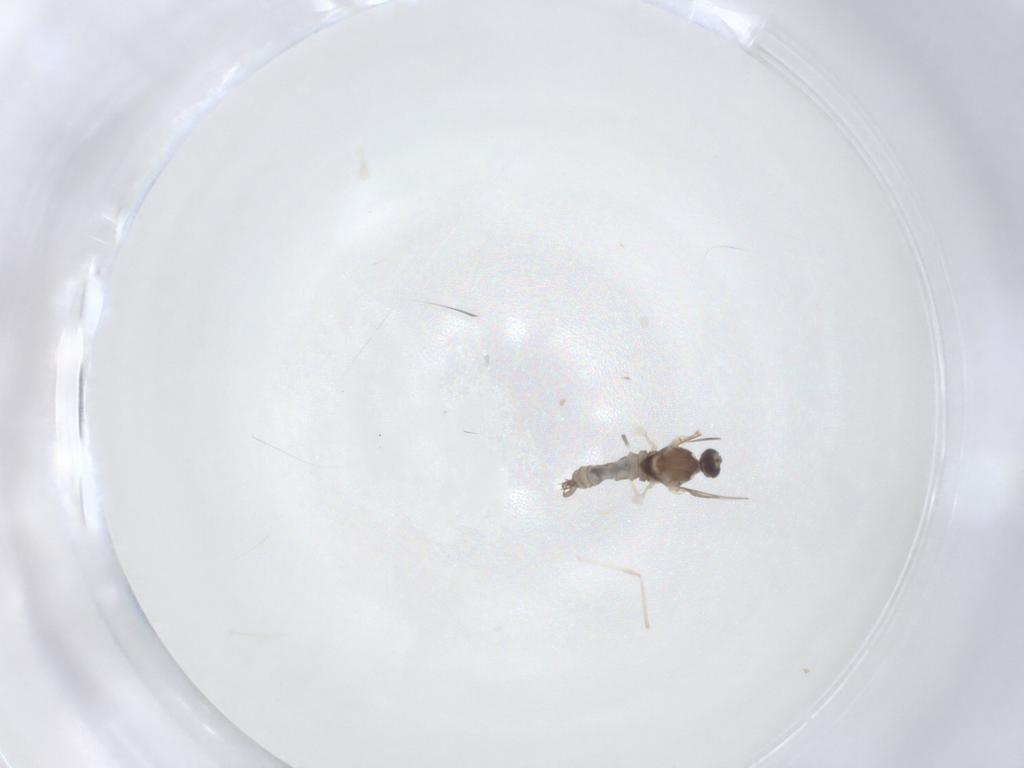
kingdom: Animalia
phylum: Arthropoda
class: Insecta
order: Diptera
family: Cecidomyiidae
